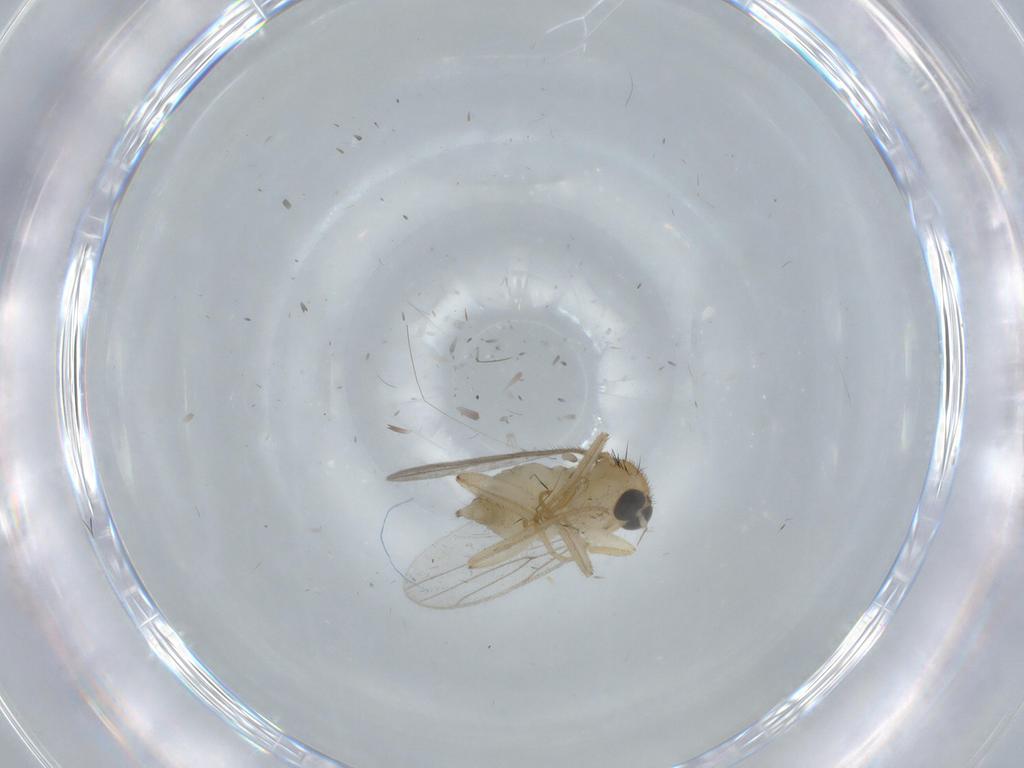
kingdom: Animalia
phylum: Arthropoda
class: Insecta
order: Diptera
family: Hybotidae
